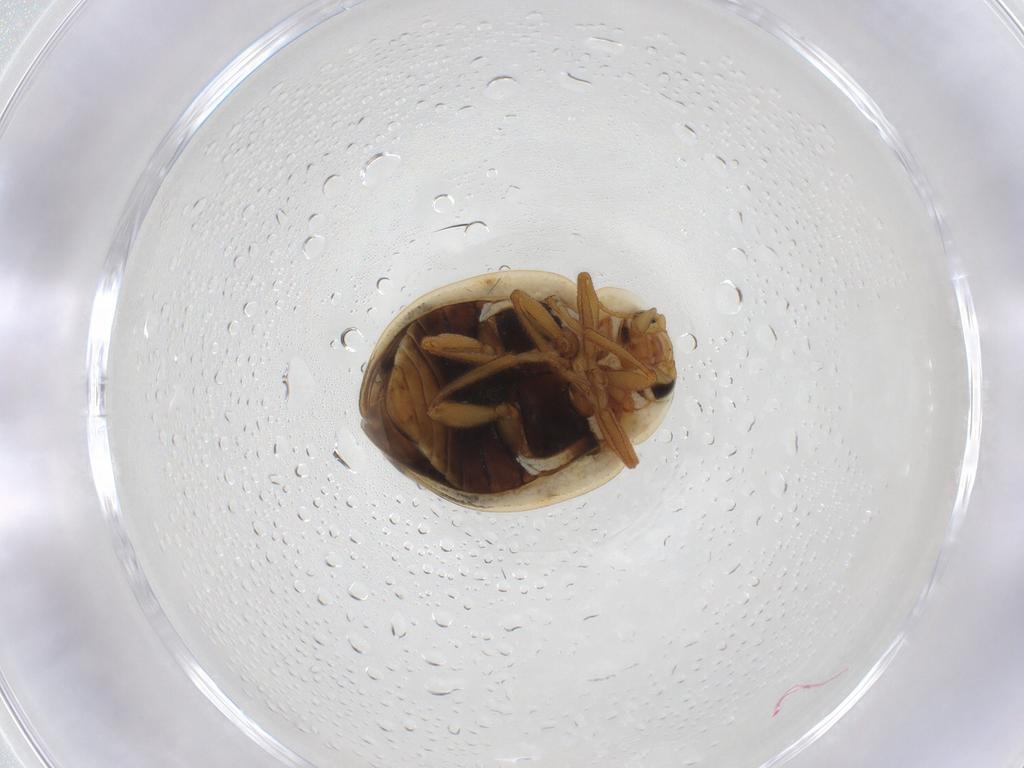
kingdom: Animalia
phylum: Arthropoda
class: Insecta
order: Coleoptera
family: Coccinellidae
